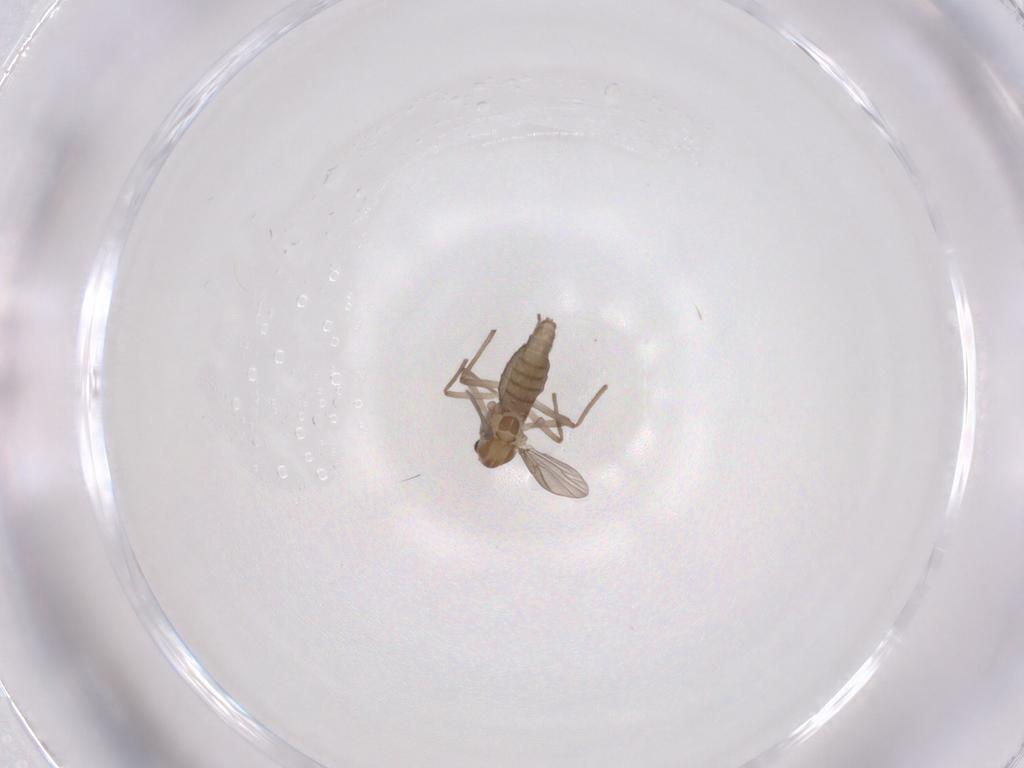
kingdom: Animalia
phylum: Arthropoda
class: Insecta
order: Diptera
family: Chironomidae
